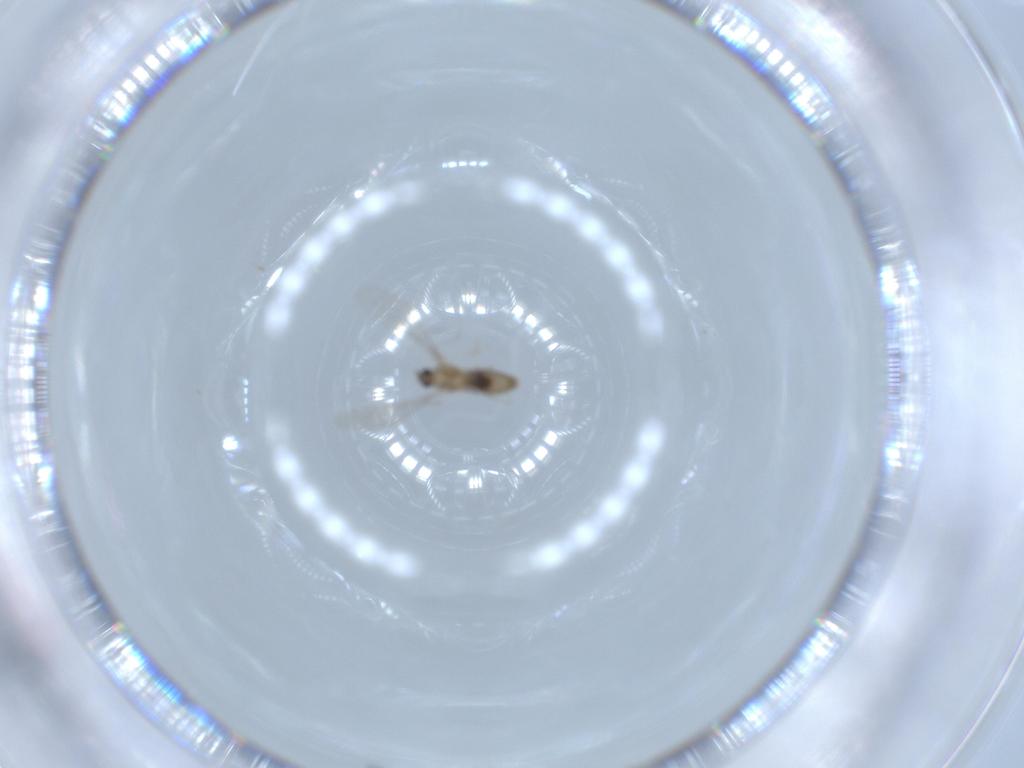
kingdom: Animalia
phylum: Arthropoda
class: Insecta
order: Diptera
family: Cecidomyiidae
